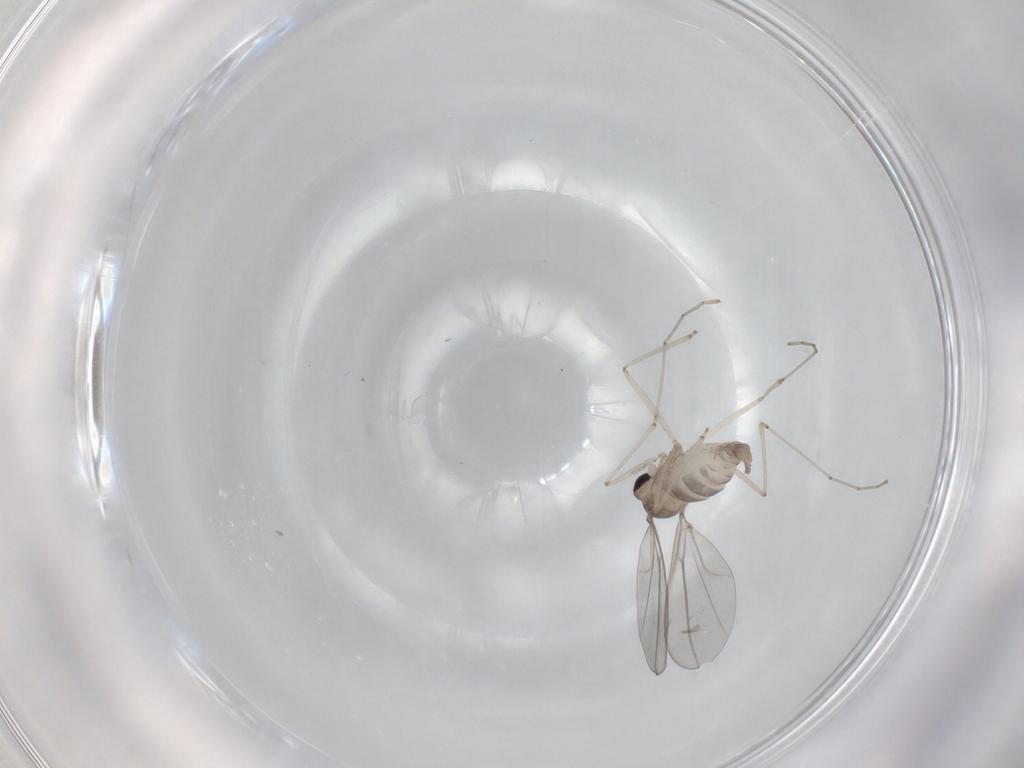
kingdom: Animalia
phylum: Arthropoda
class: Insecta
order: Diptera
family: Cecidomyiidae
